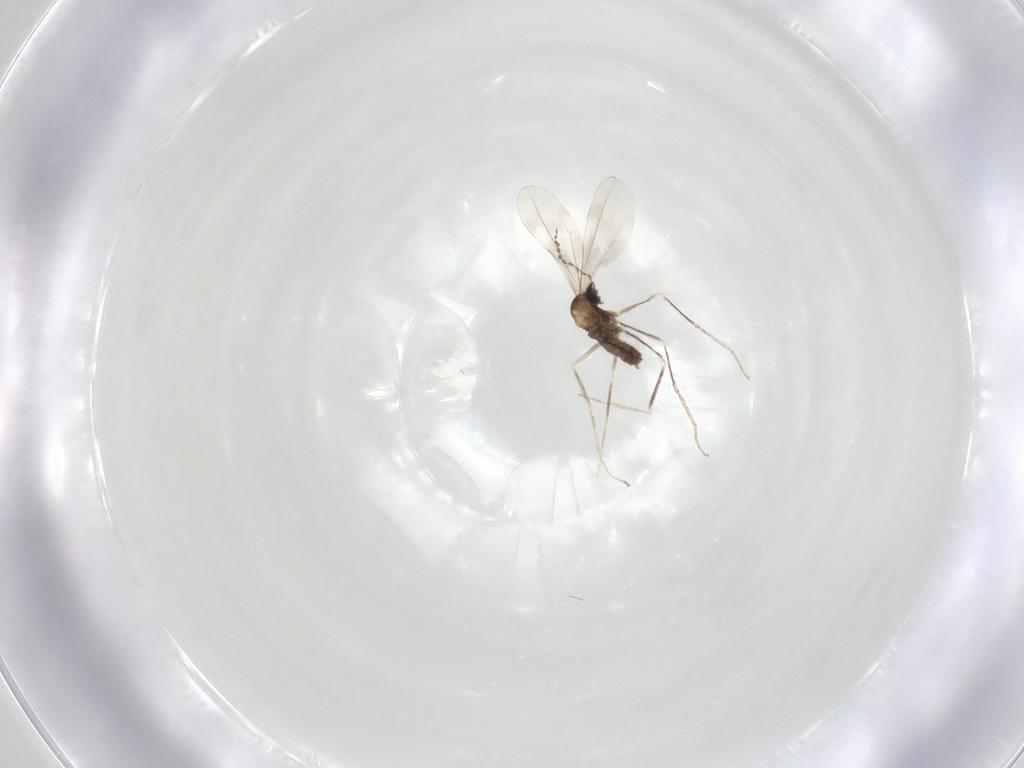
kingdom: Animalia
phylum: Arthropoda
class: Insecta
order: Diptera
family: Cecidomyiidae
